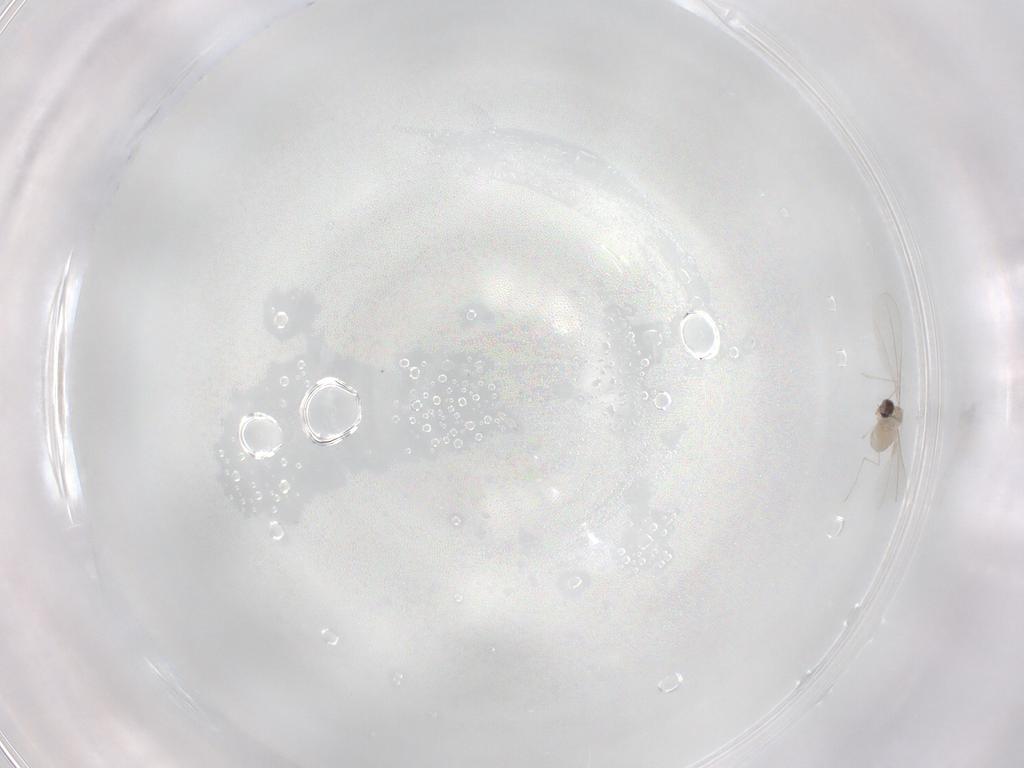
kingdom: Animalia
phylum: Arthropoda
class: Insecta
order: Diptera
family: Cecidomyiidae
